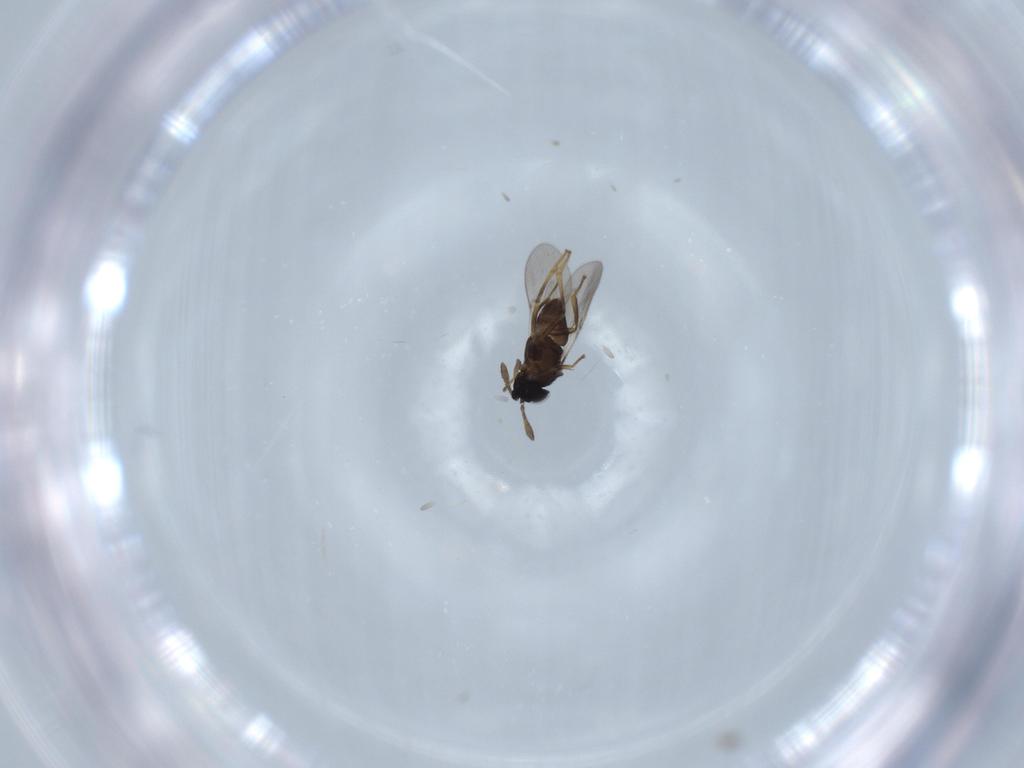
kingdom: Animalia
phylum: Arthropoda
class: Insecta
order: Diptera
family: Cecidomyiidae
